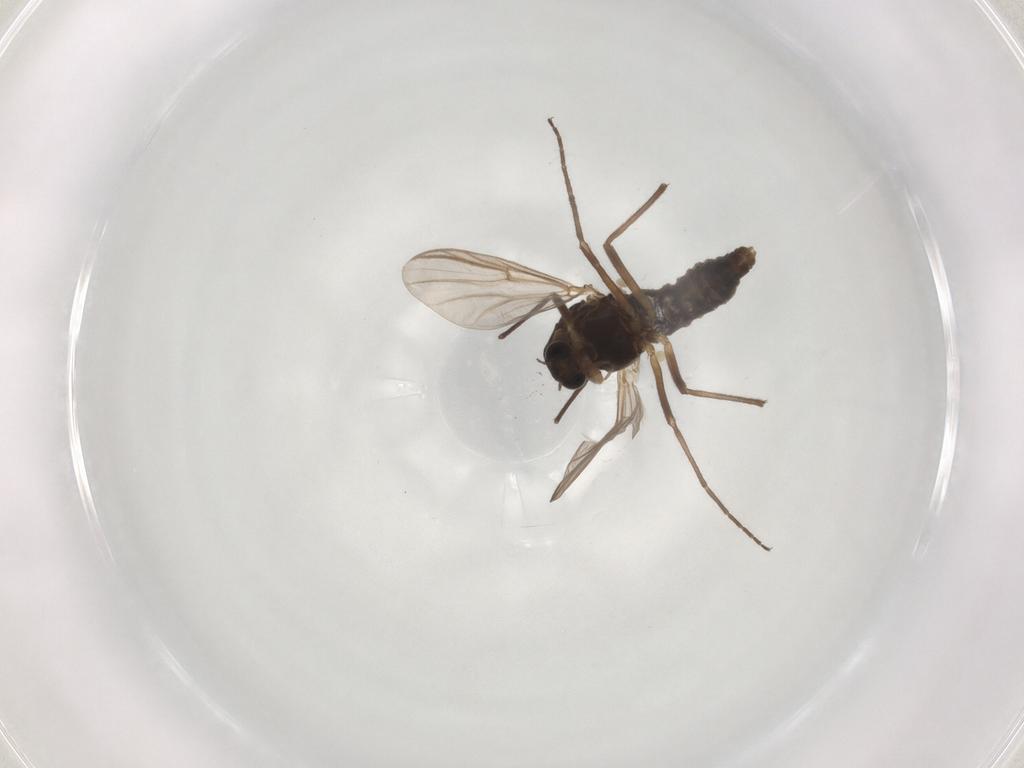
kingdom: Animalia
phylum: Arthropoda
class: Insecta
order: Diptera
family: Agromyzidae
